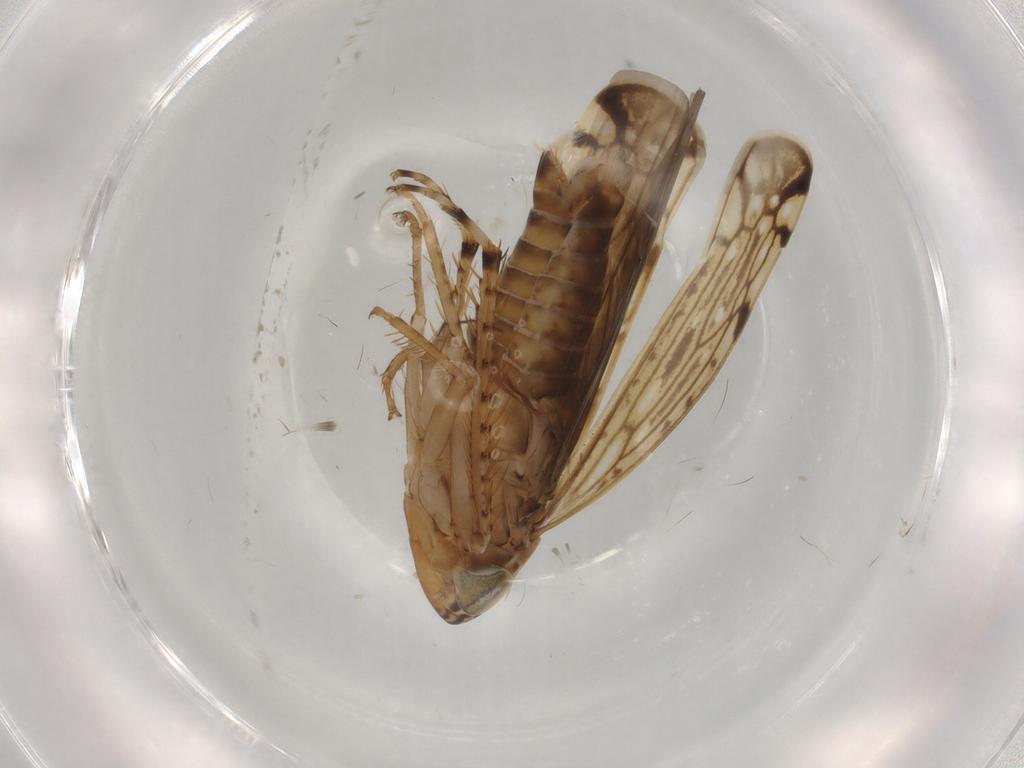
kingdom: Animalia
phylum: Arthropoda
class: Insecta
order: Hemiptera
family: Cicadellidae
